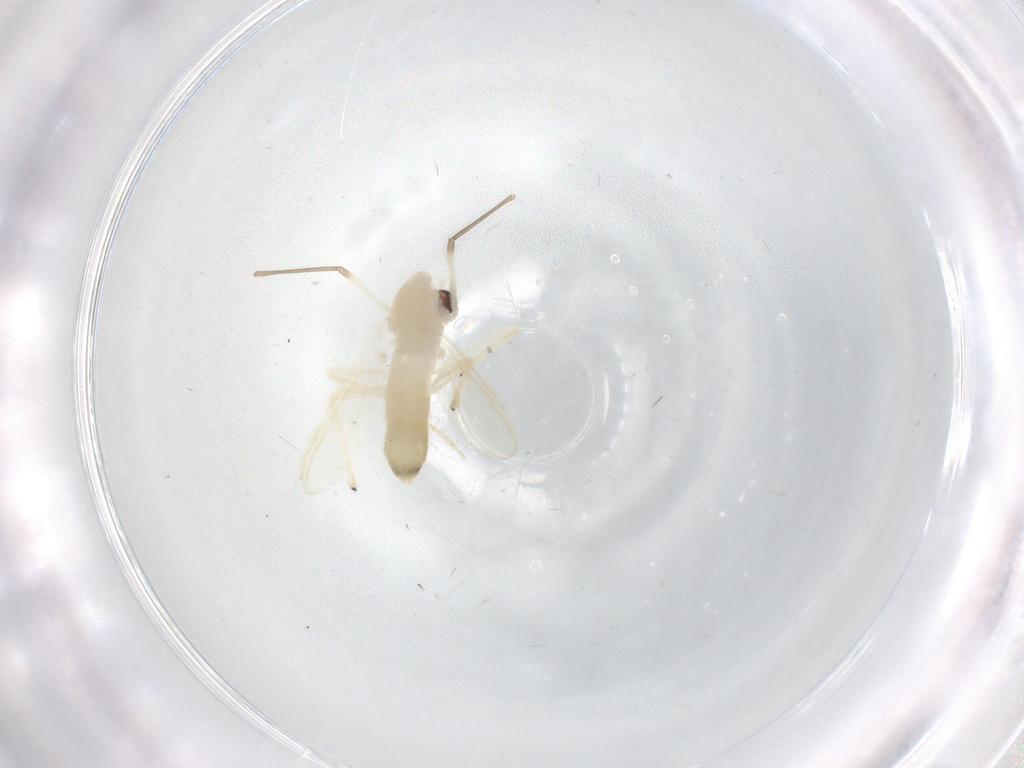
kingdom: Animalia
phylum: Arthropoda
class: Insecta
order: Diptera
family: Chironomidae
